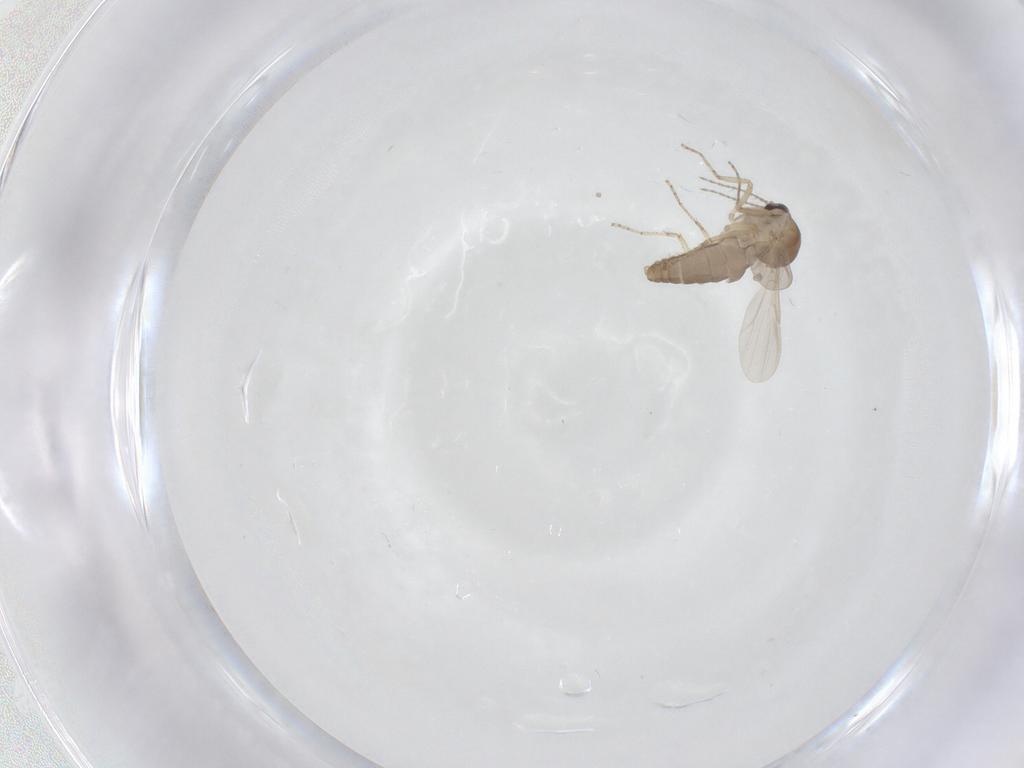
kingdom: Animalia
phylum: Arthropoda
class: Insecta
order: Diptera
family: Ceratopogonidae
